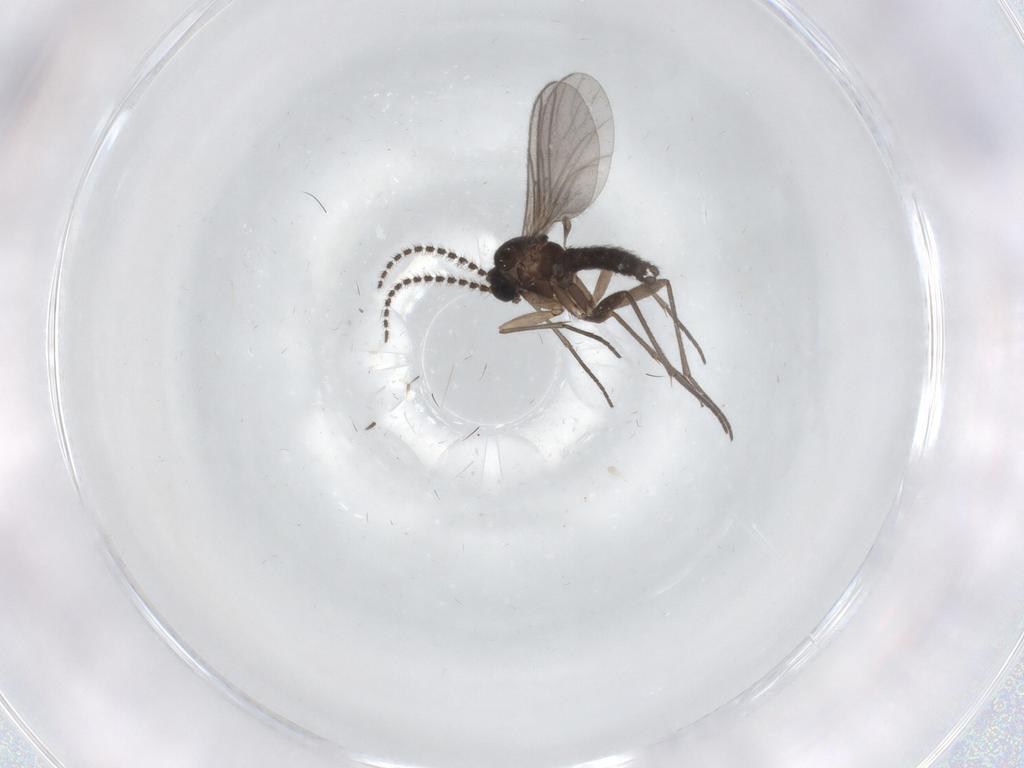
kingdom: Animalia
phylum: Arthropoda
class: Insecta
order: Diptera
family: Sciaridae
